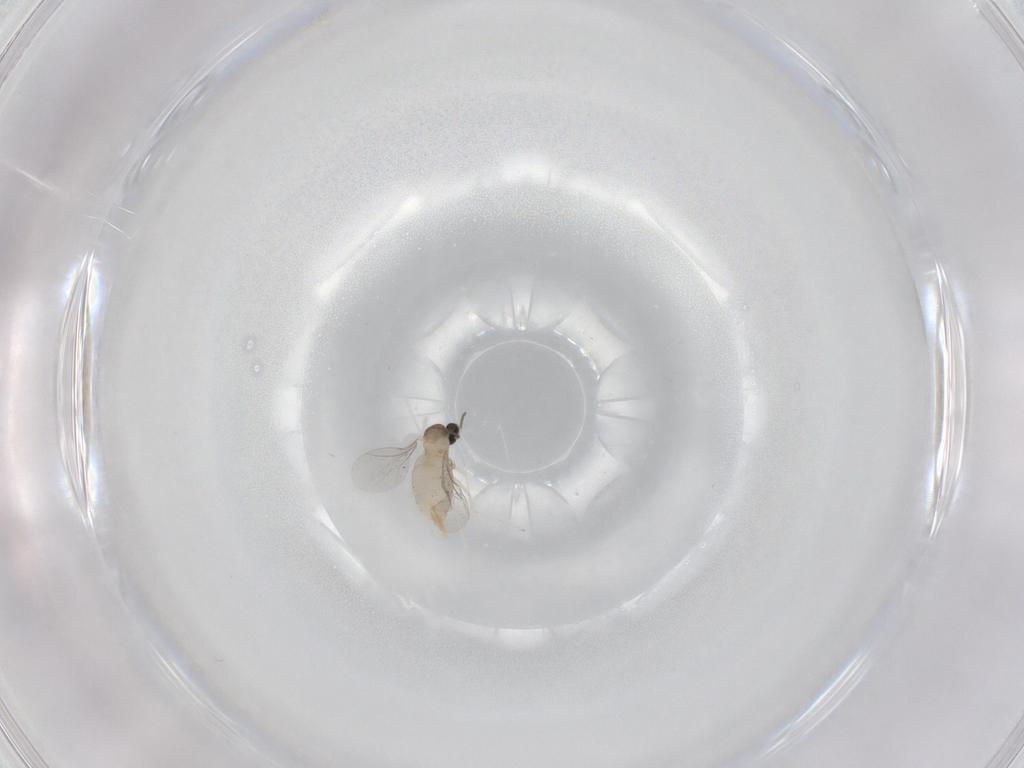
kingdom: Animalia
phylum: Arthropoda
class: Insecta
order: Diptera
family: Cecidomyiidae
